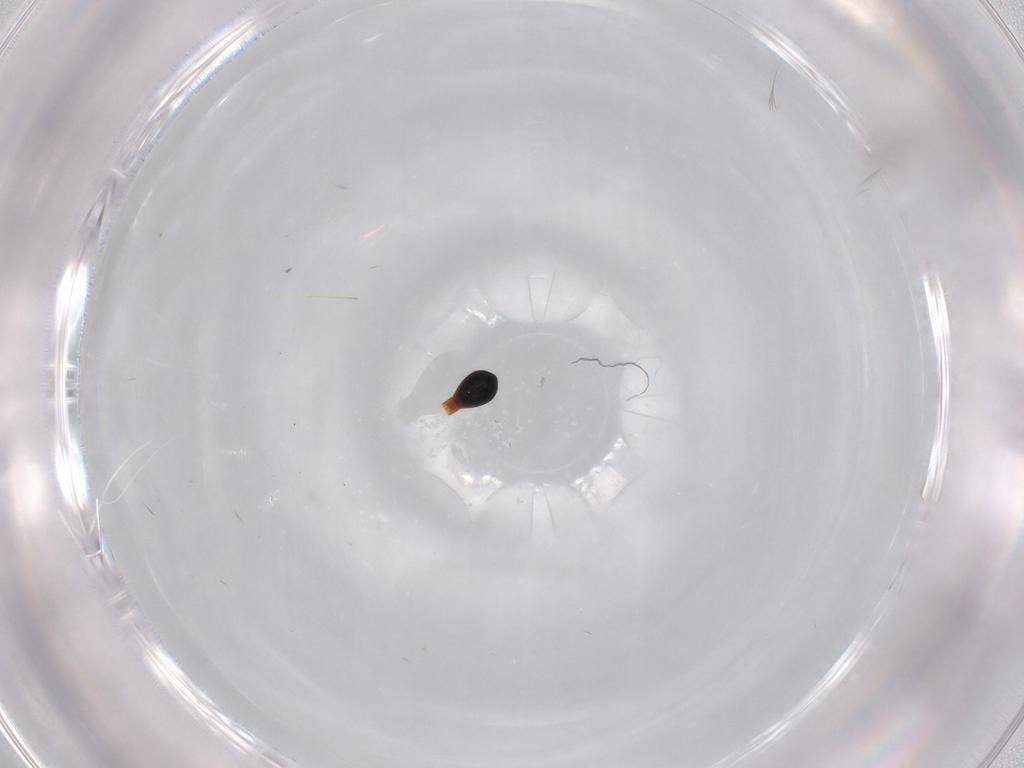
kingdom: Animalia
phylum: Arthropoda
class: Insecta
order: Hymenoptera
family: Platygastridae
